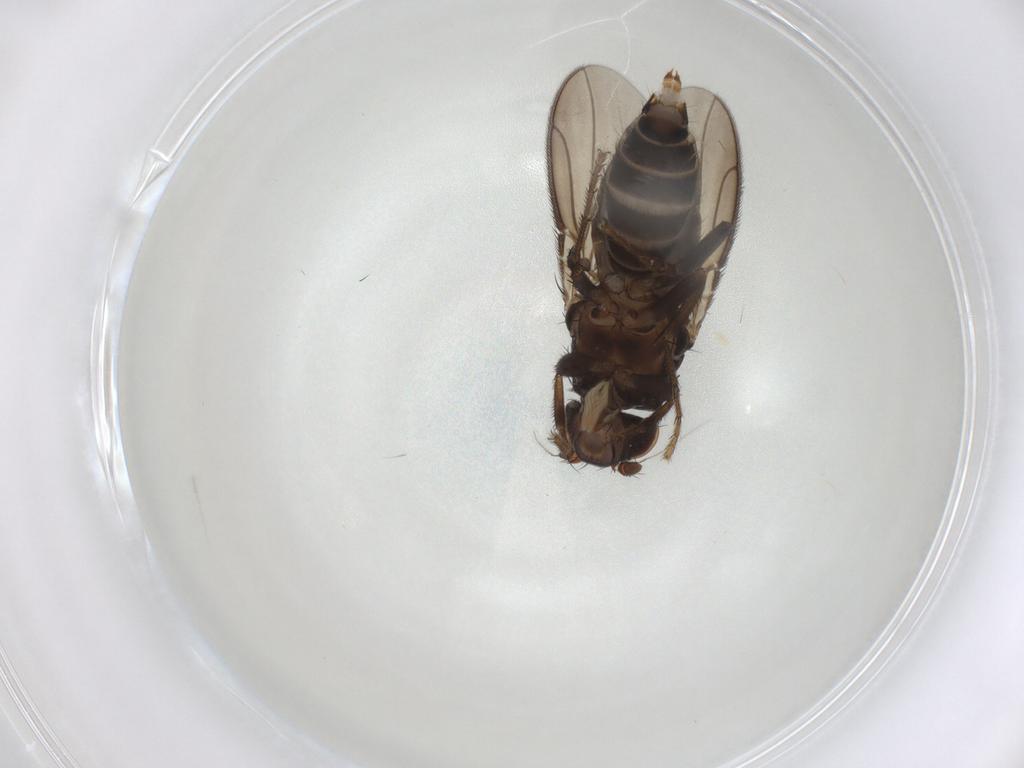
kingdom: Animalia
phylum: Arthropoda
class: Insecta
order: Diptera
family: Sphaeroceridae
